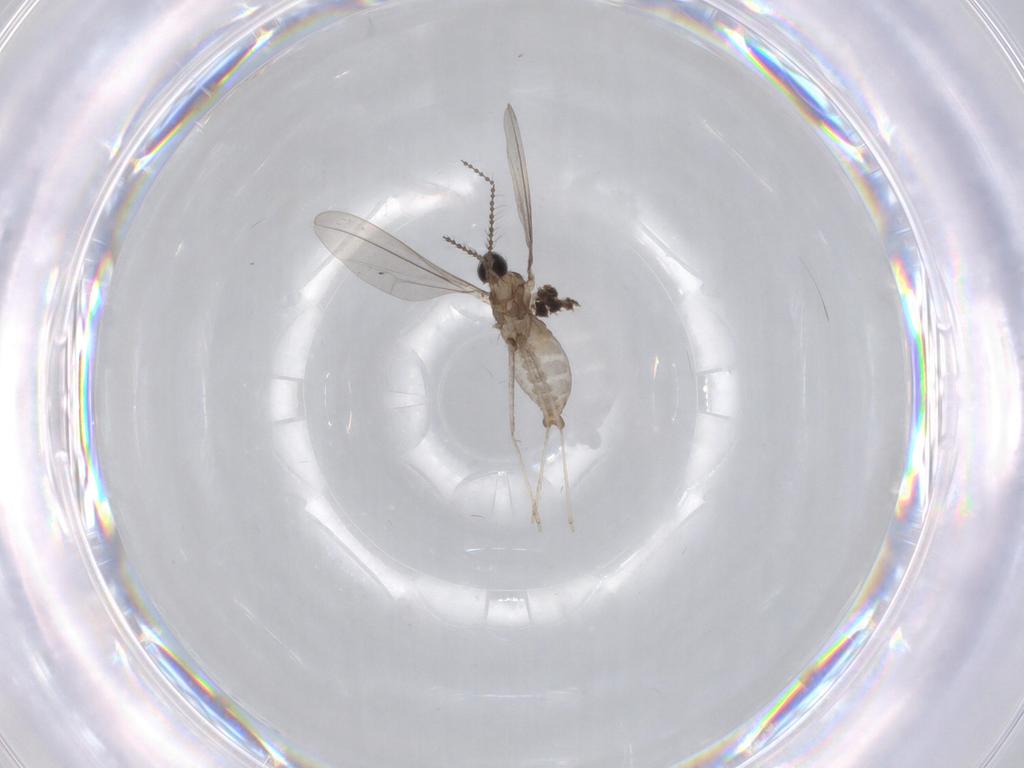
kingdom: Animalia
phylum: Arthropoda
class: Insecta
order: Diptera
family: Cecidomyiidae
